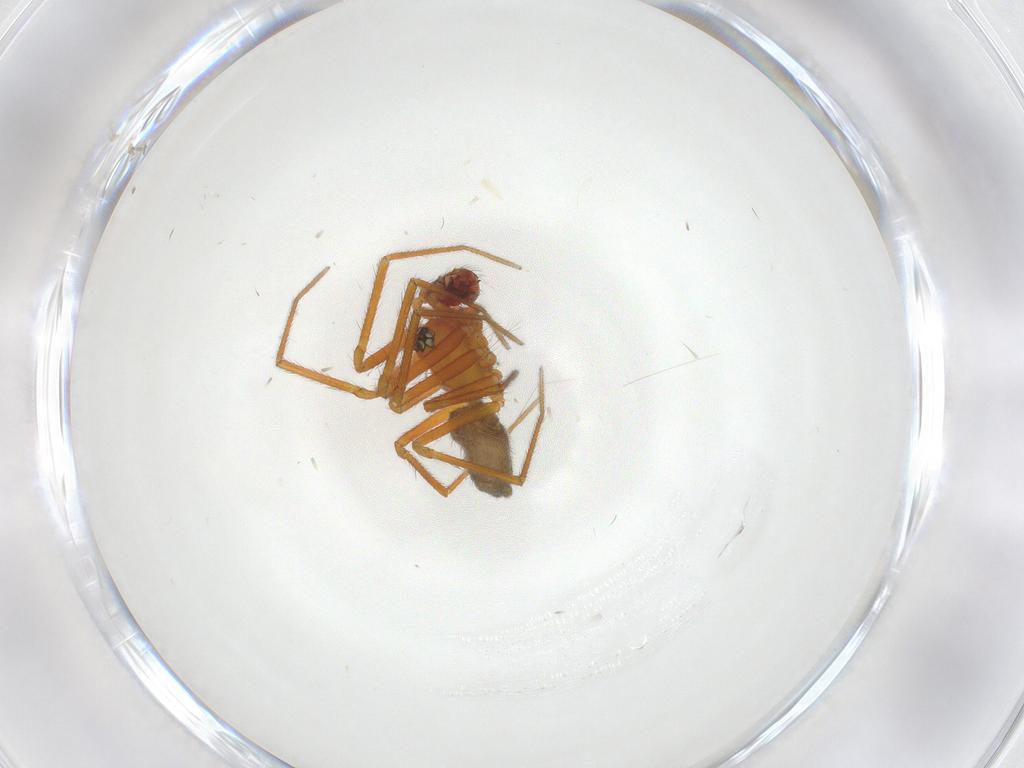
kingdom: Animalia
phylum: Arthropoda
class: Arachnida
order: Araneae
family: Linyphiidae
